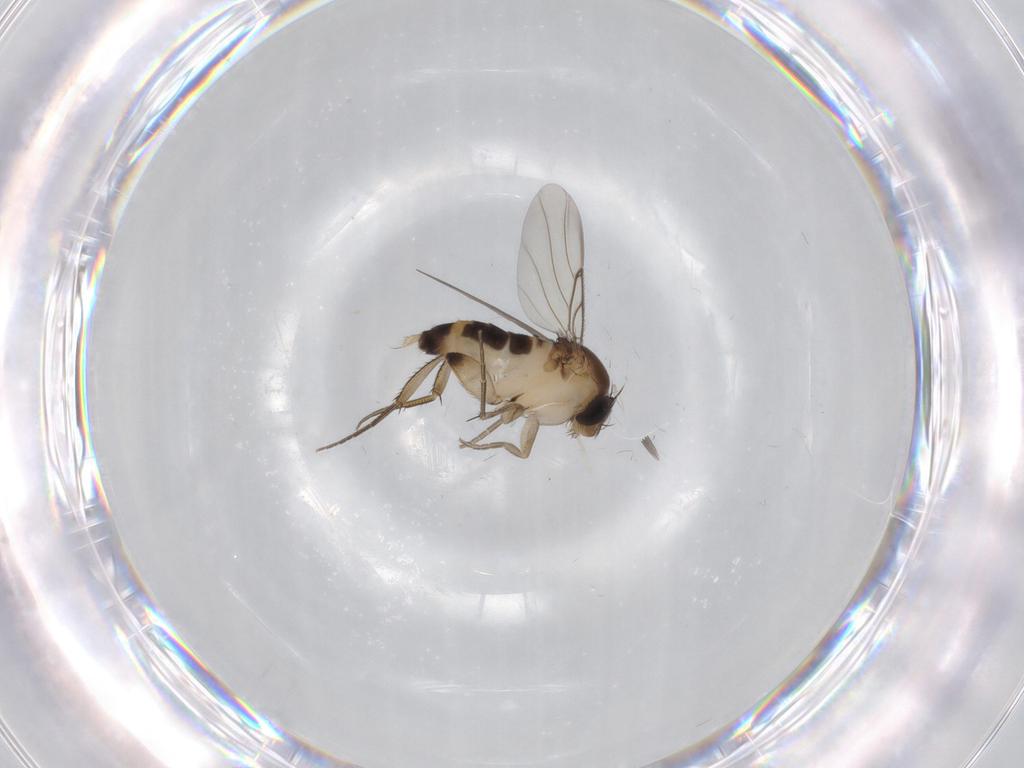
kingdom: Animalia
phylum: Arthropoda
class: Insecta
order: Diptera
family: Cecidomyiidae
